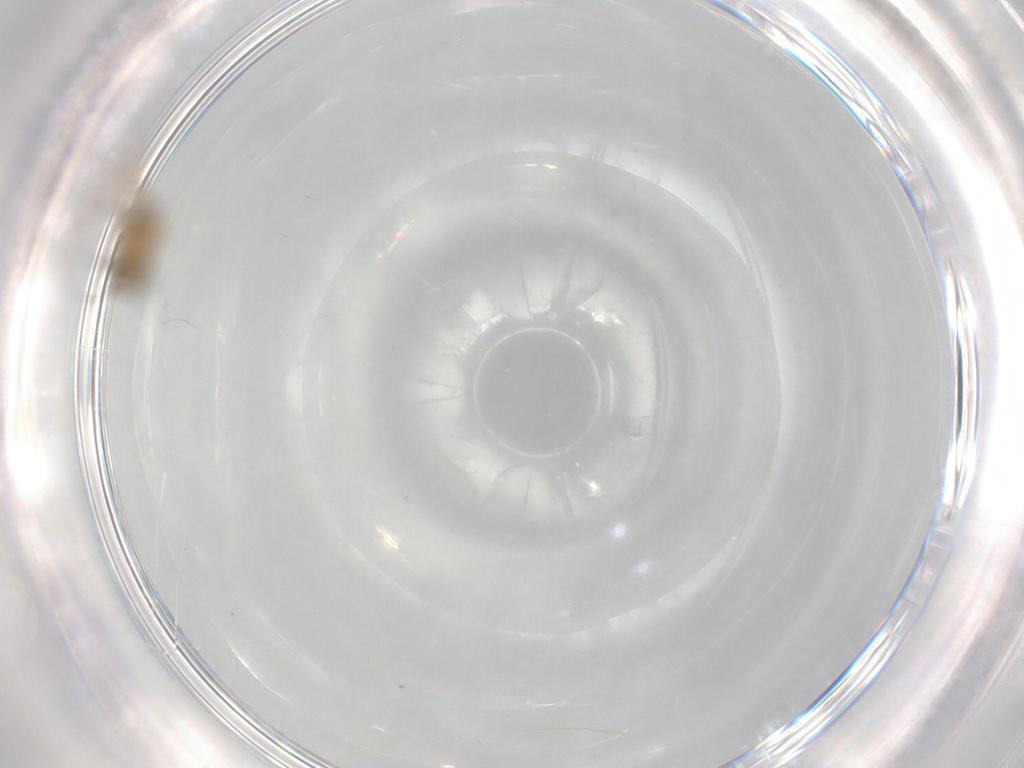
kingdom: Animalia
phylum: Arthropoda
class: Insecta
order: Diptera
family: Chironomidae
